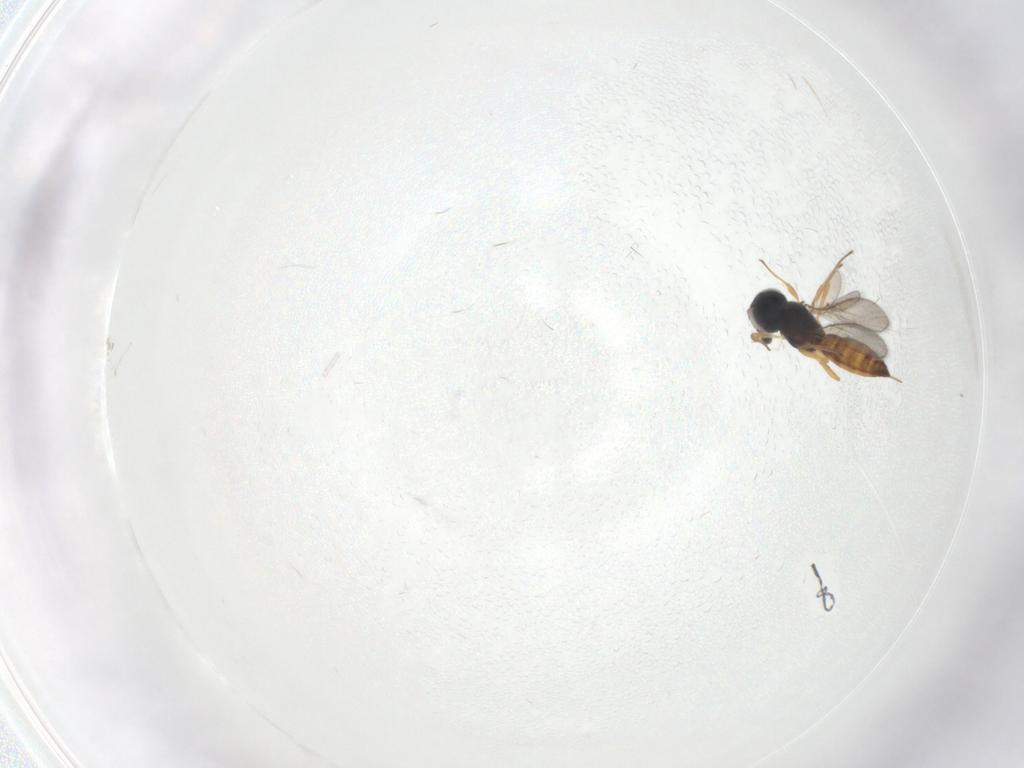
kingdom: Animalia
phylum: Arthropoda
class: Insecta
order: Hymenoptera
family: Scelionidae
